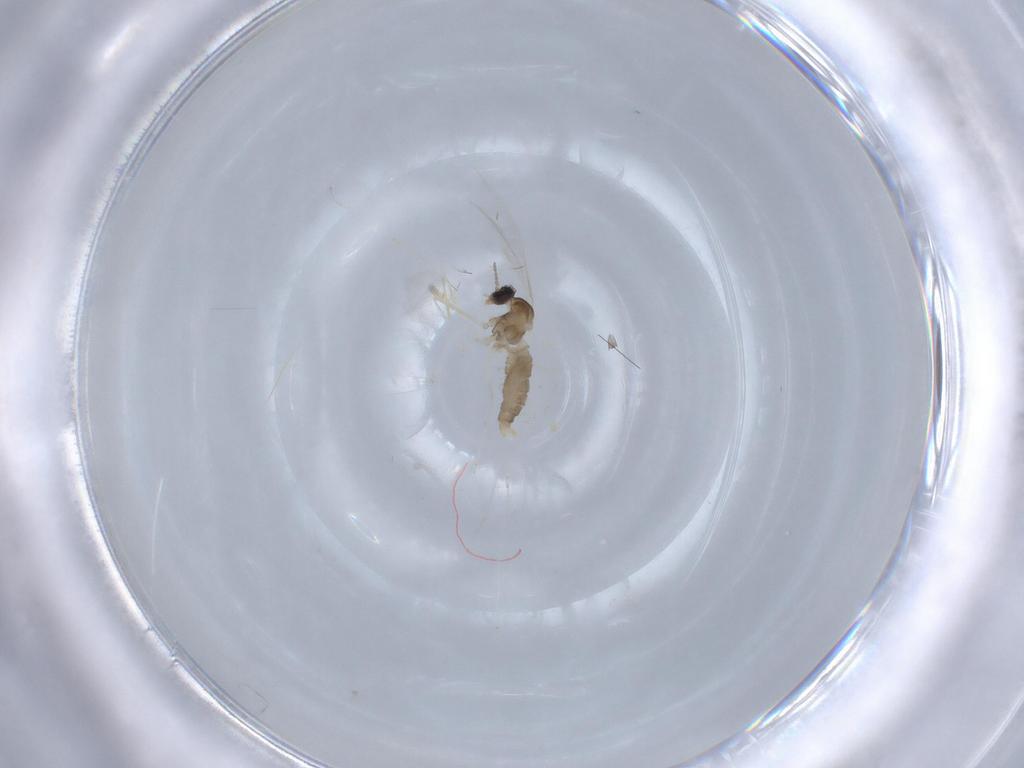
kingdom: Animalia
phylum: Arthropoda
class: Insecta
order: Diptera
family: Cecidomyiidae
